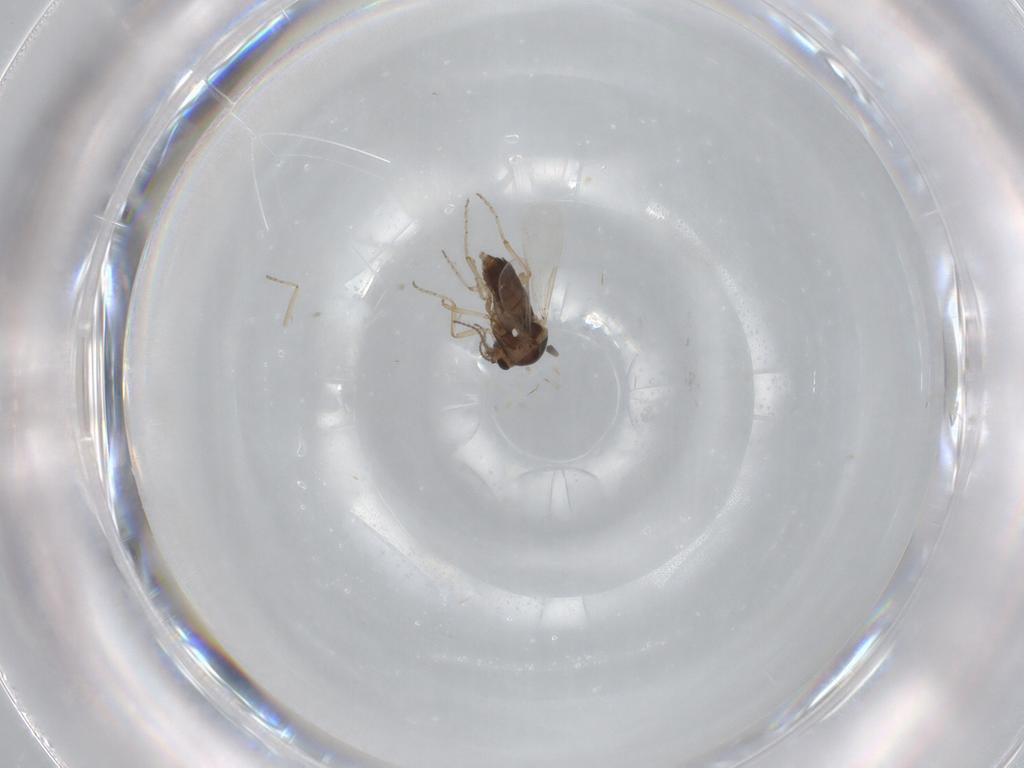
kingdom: Animalia
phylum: Arthropoda
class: Insecta
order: Diptera
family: Ceratopogonidae
